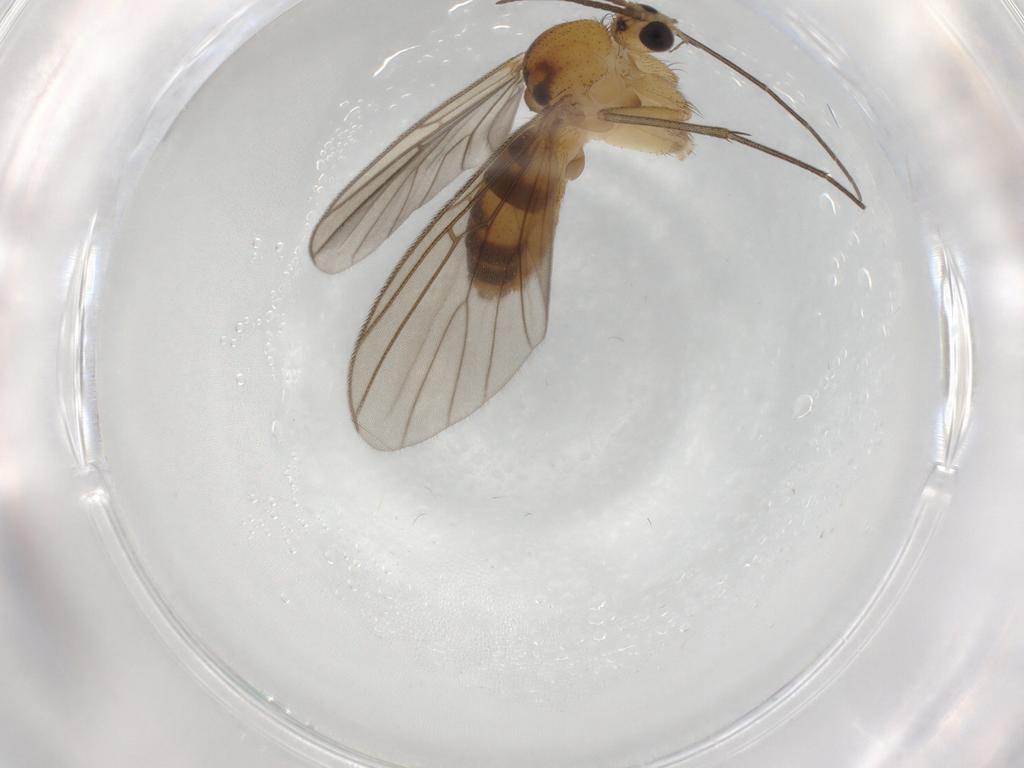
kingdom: Animalia
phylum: Arthropoda
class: Insecta
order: Diptera
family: Mycetophilidae
